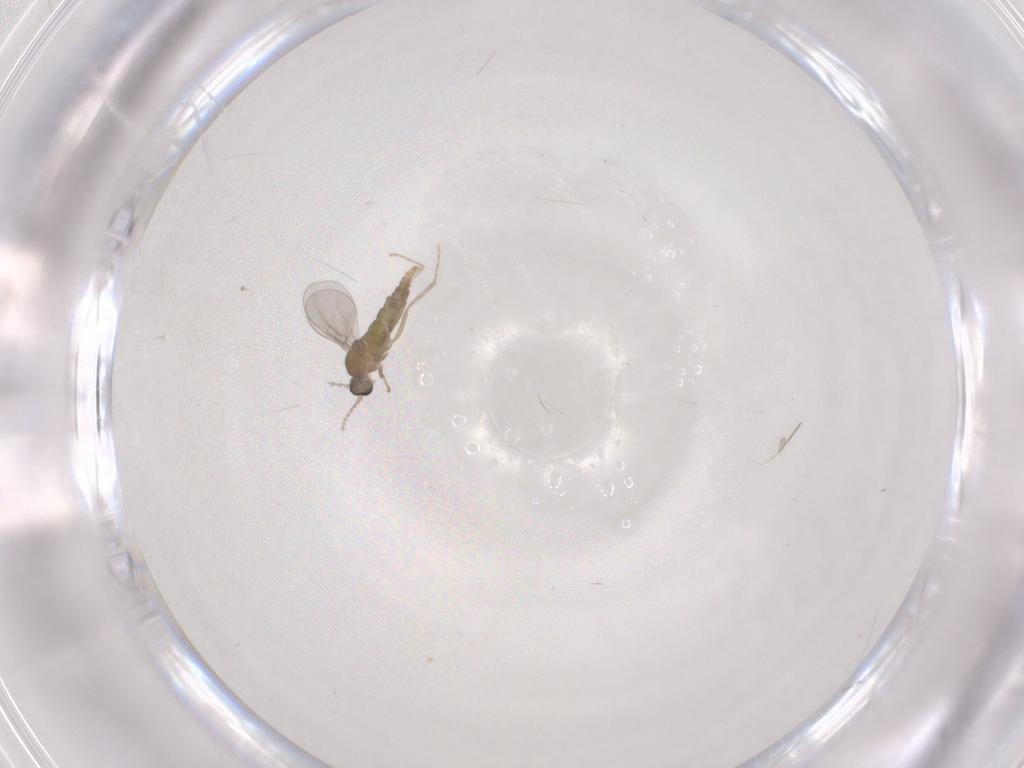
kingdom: Animalia
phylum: Arthropoda
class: Insecta
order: Diptera
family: Cecidomyiidae
